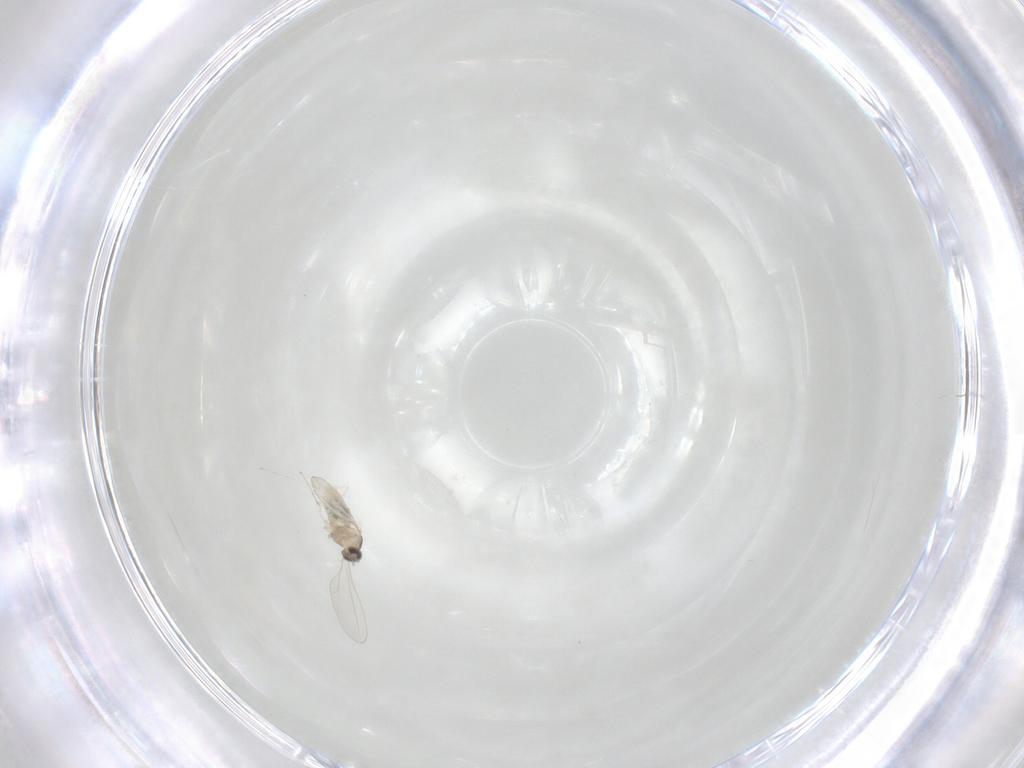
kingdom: Animalia
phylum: Arthropoda
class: Insecta
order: Diptera
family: Cecidomyiidae
